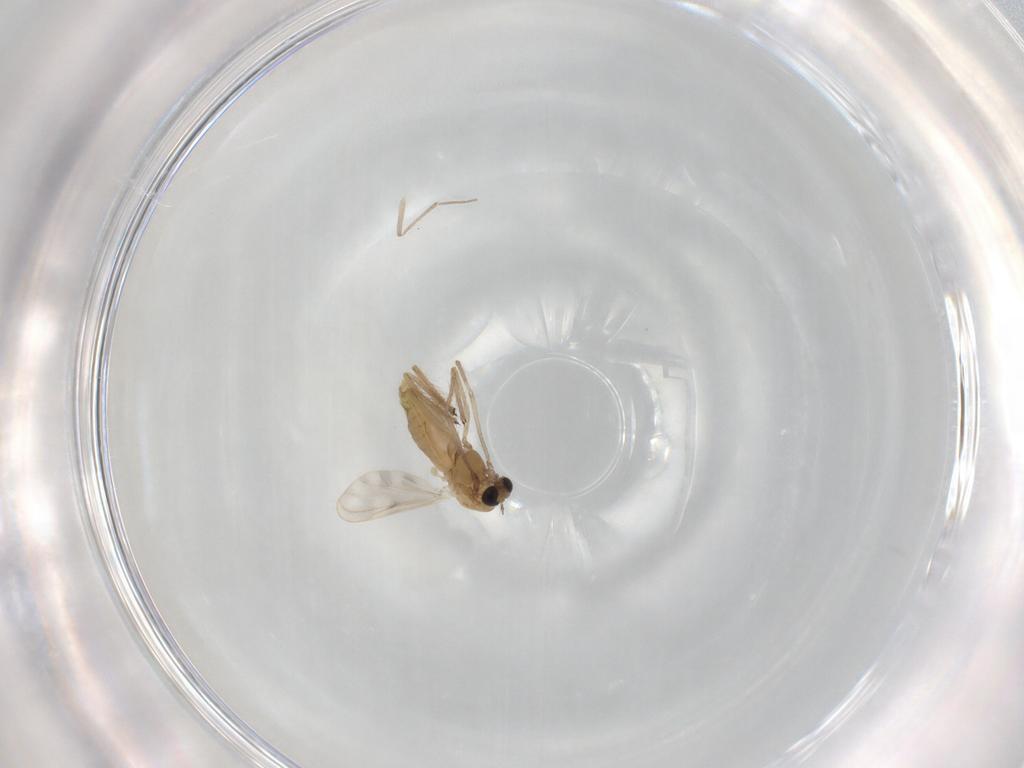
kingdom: Animalia
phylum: Arthropoda
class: Insecta
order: Diptera
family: Chironomidae
